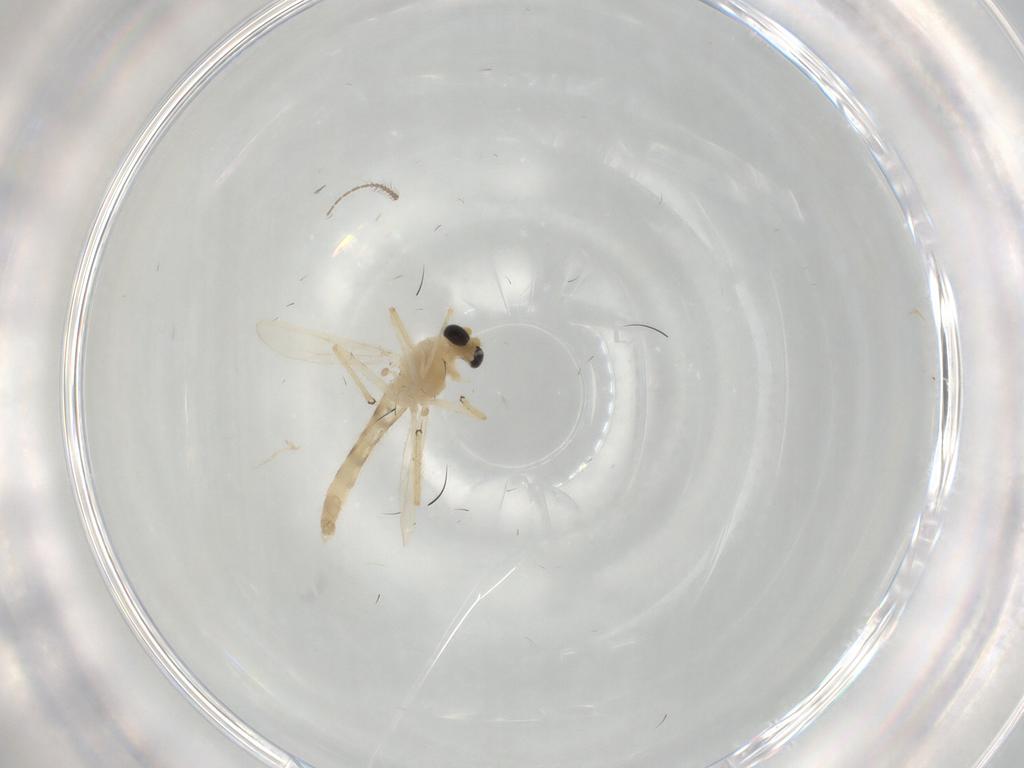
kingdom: Animalia
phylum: Arthropoda
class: Insecta
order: Diptera
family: Chironomidae
